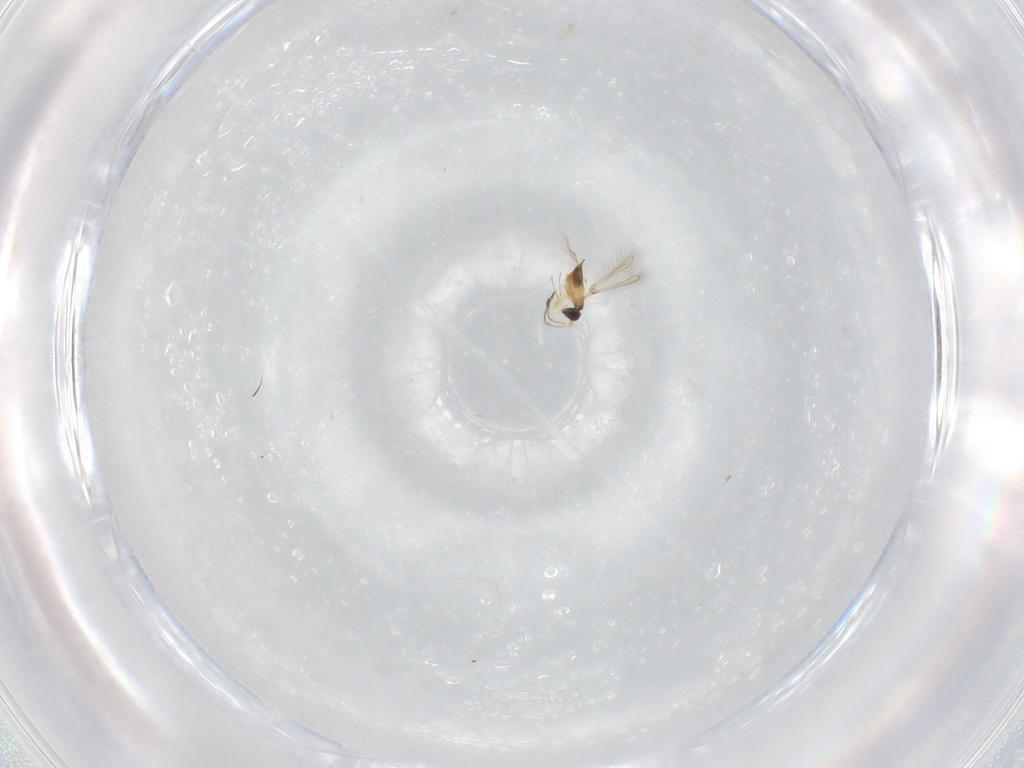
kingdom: Animalia
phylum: Arthropoda
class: Insecta
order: Hymenoptera
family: Aphelinidae
